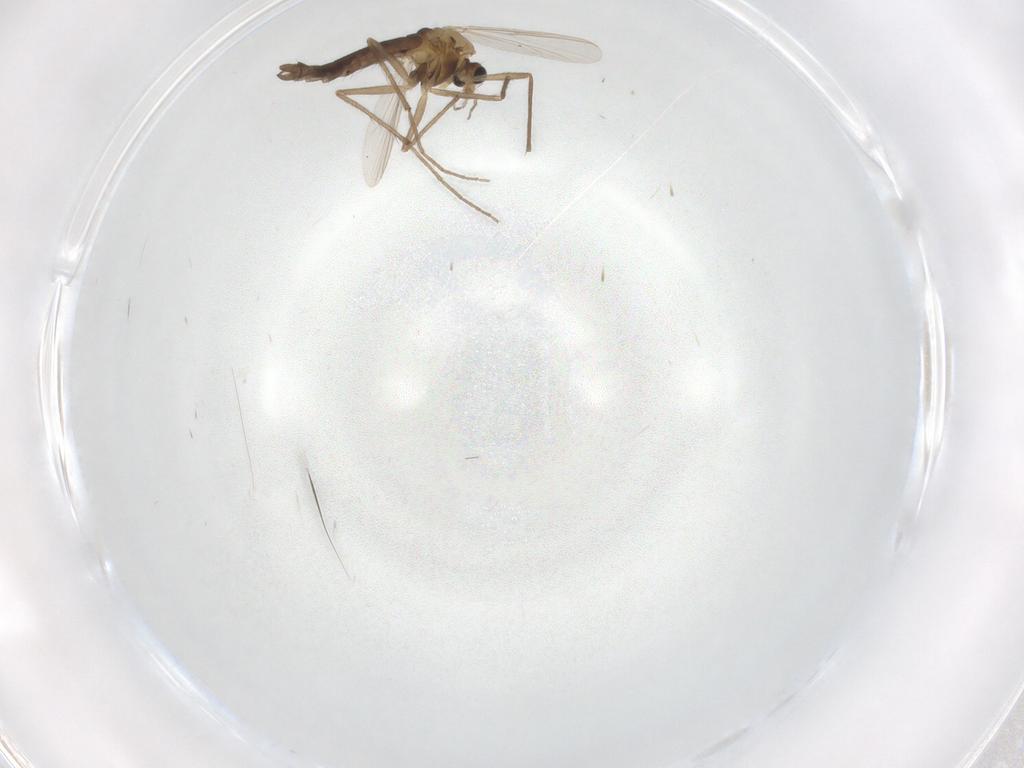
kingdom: Animalia
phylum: Arthropoda
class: Insecta
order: Diptera
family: Chironomidae
